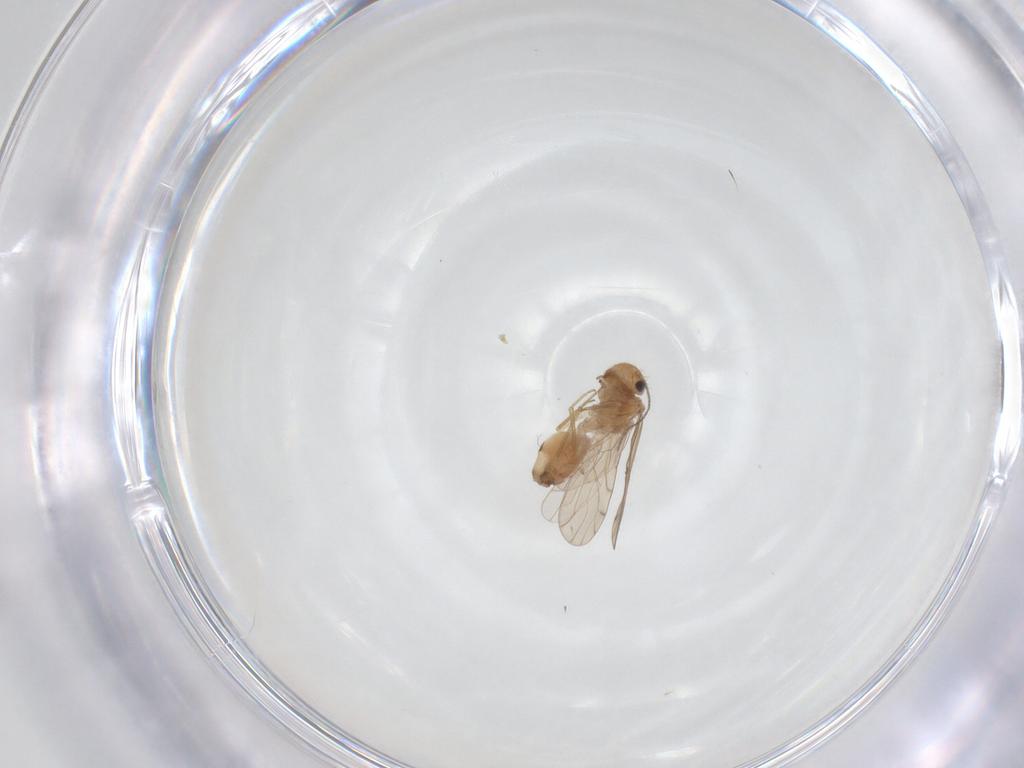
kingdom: Animalia
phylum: Arthropoda
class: Insecta
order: Psocodea
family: Ectopsocidae
